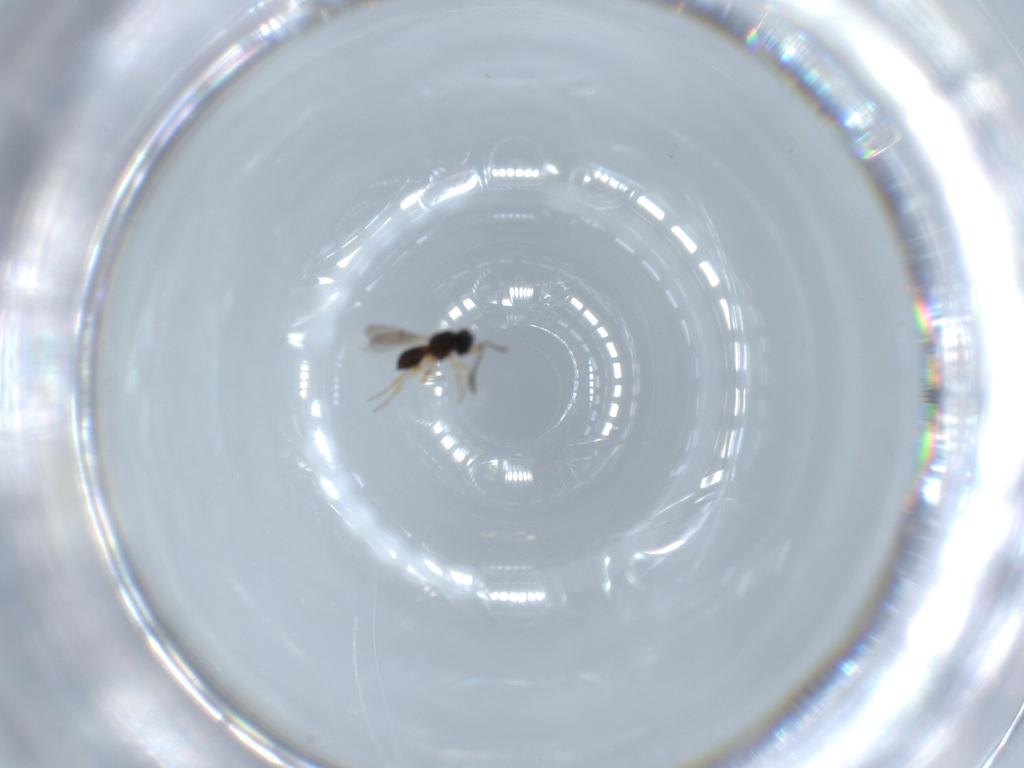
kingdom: Animalia
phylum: Arthropoda
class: Insecta
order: Hymenoptera
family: Scelionidae
